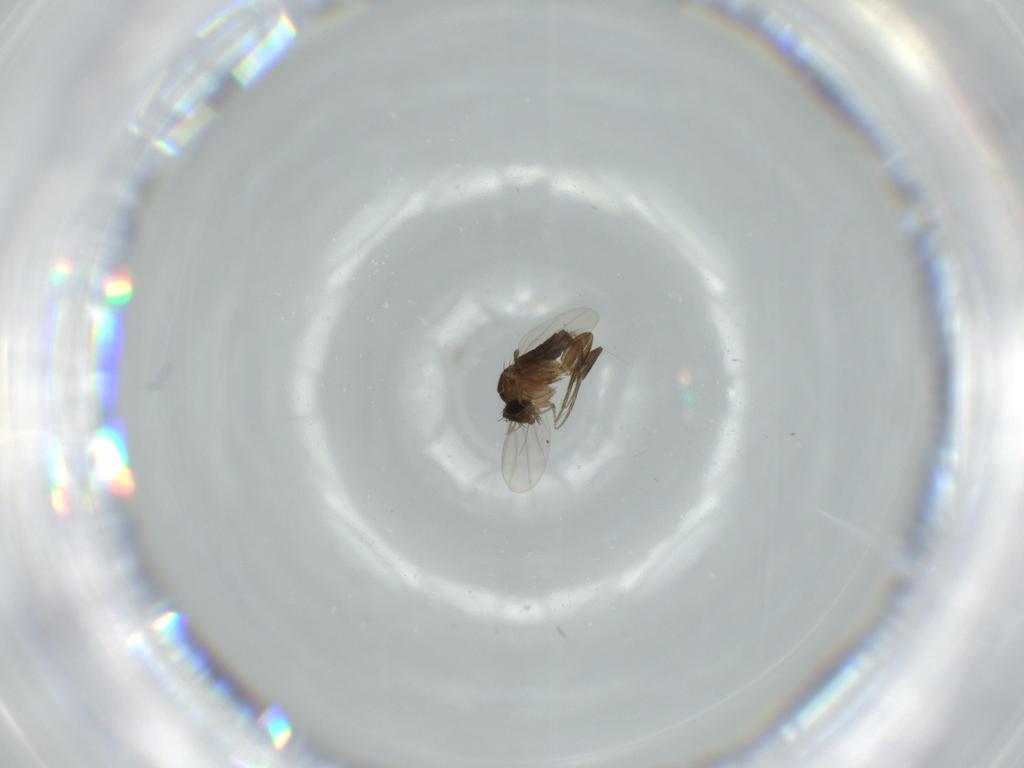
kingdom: Animalia
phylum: Arthropoda
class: Insecta
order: Diptera
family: Phoridae
